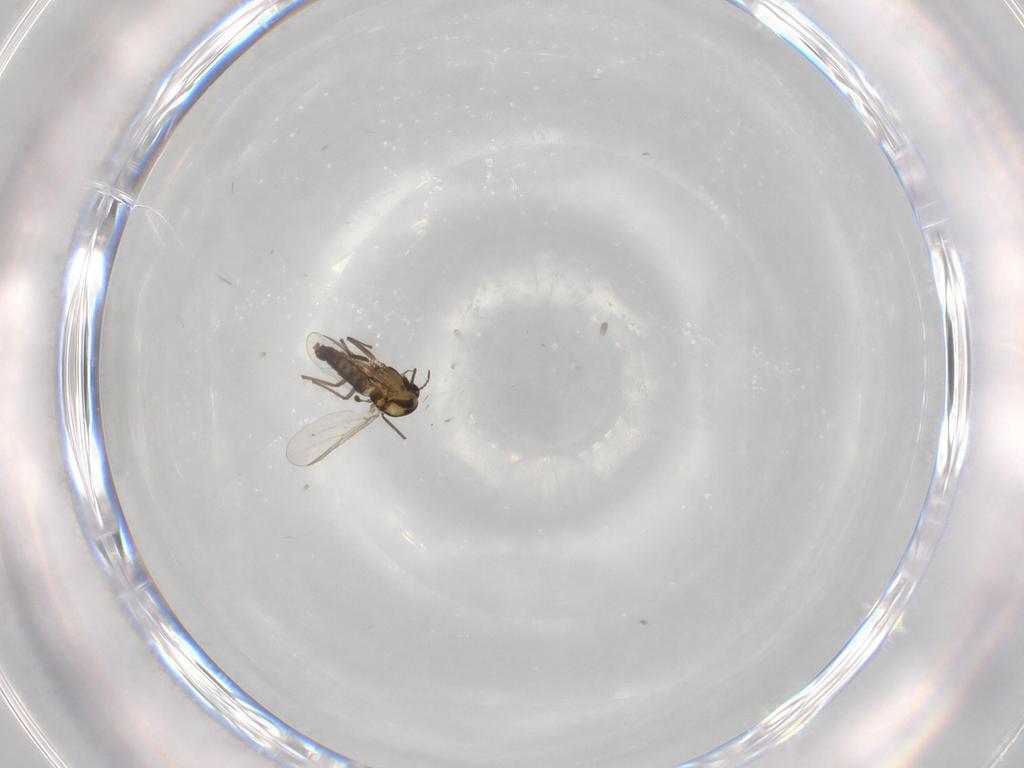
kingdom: Animalia
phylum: Arthropoda
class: Insecta
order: Diptera
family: Chironomidae
